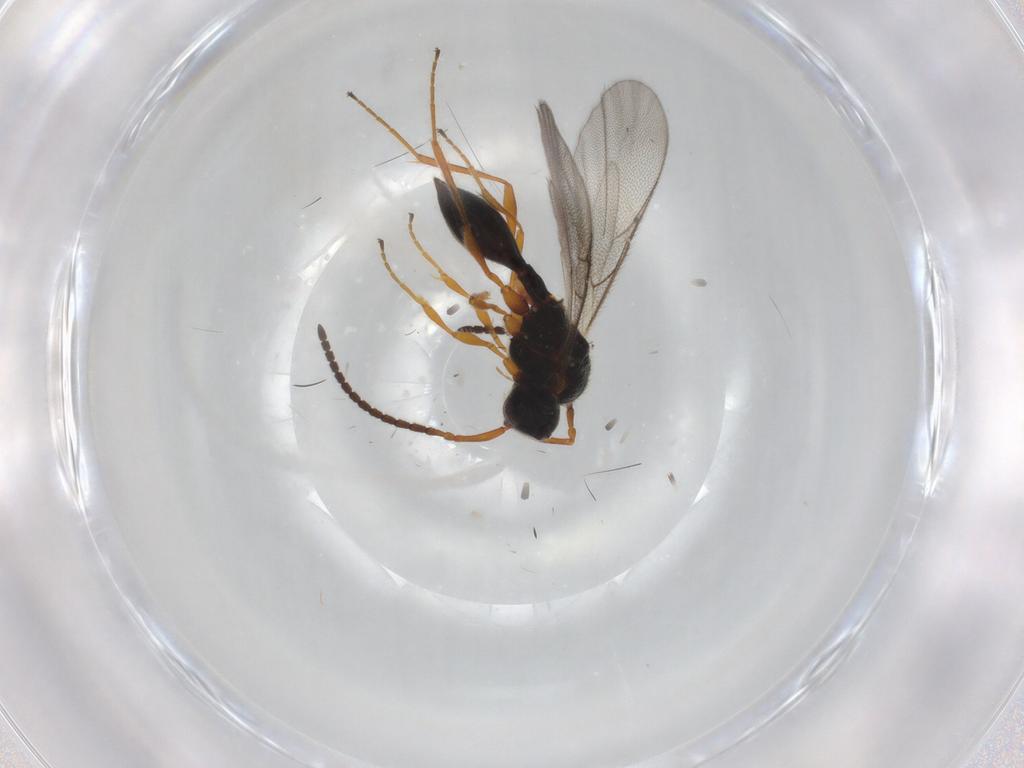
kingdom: Animalia
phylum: Arthropoda
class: Insecta
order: Hymenoptera
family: Diapriidae
